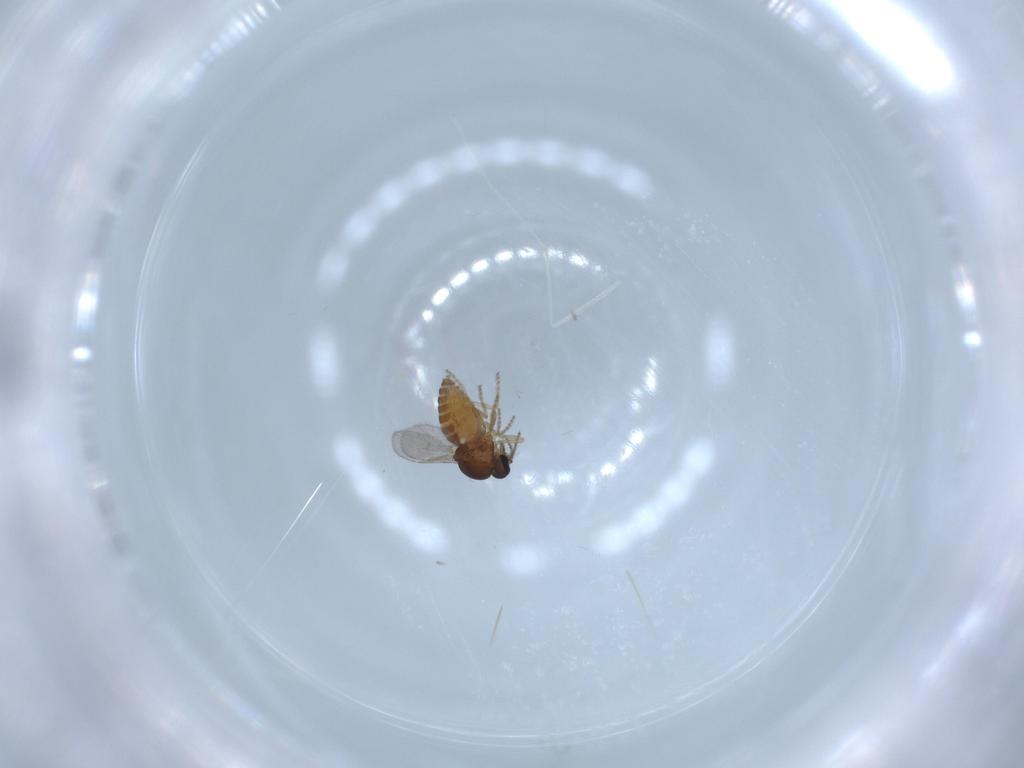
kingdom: Animalia
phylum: Arthropoda
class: Insecta
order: Diptera
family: Ceratopogonidae
